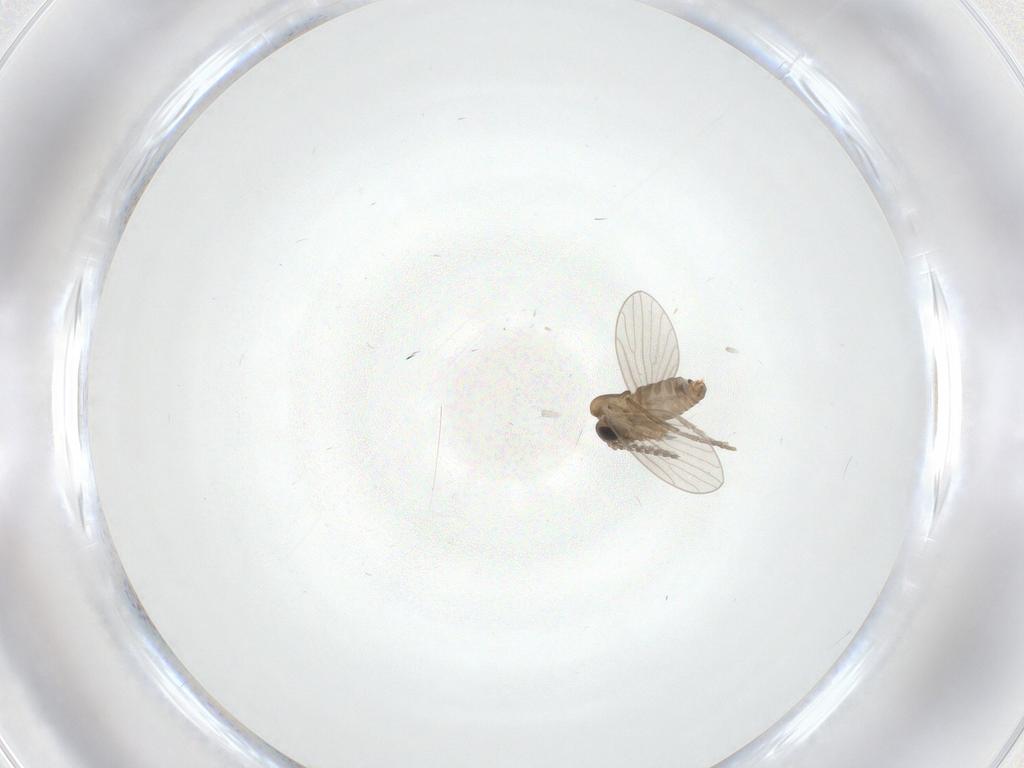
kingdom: Animalia
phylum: Arthropoda
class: Insecta
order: Diptera
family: Psychodidae
